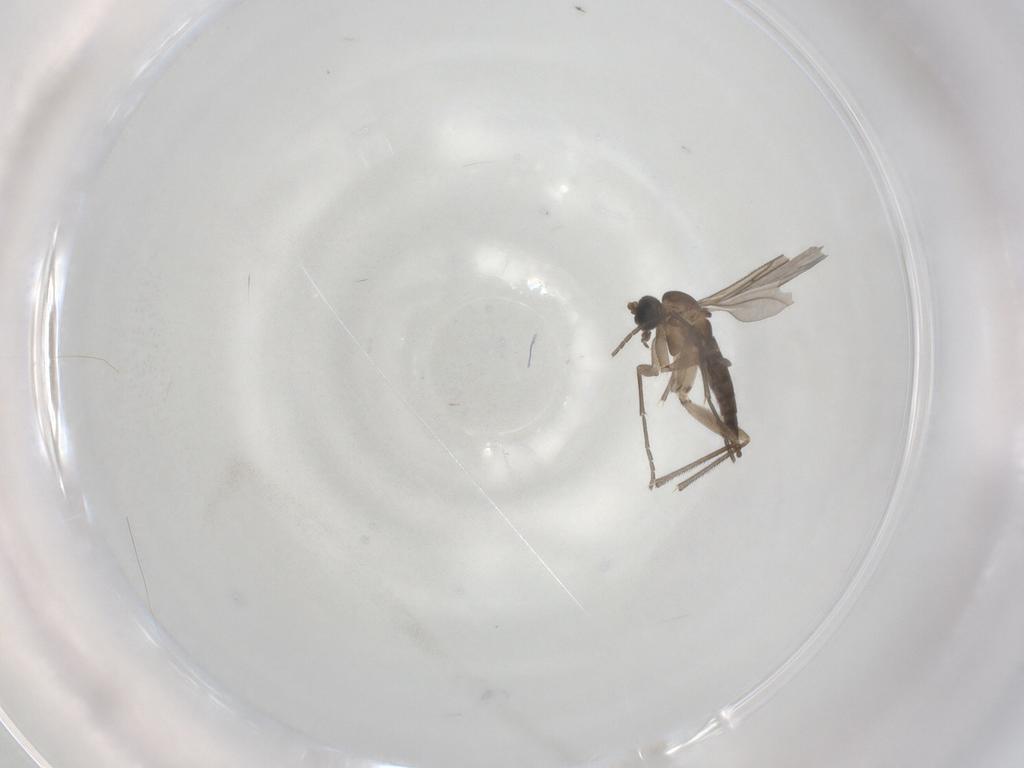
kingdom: Animalia
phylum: Arthropoda
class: Insecta
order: Diptera
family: Sciaridae
